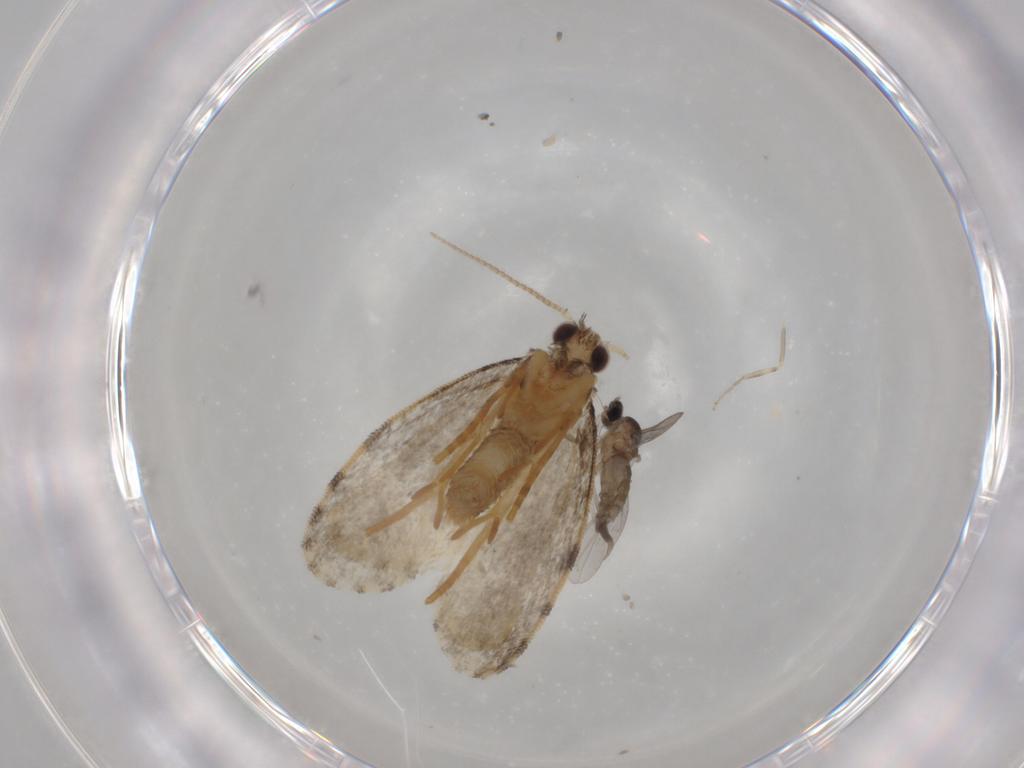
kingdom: Animalia
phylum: Arthropoda
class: Insecta
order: Lepidoptera
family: Psychidae
